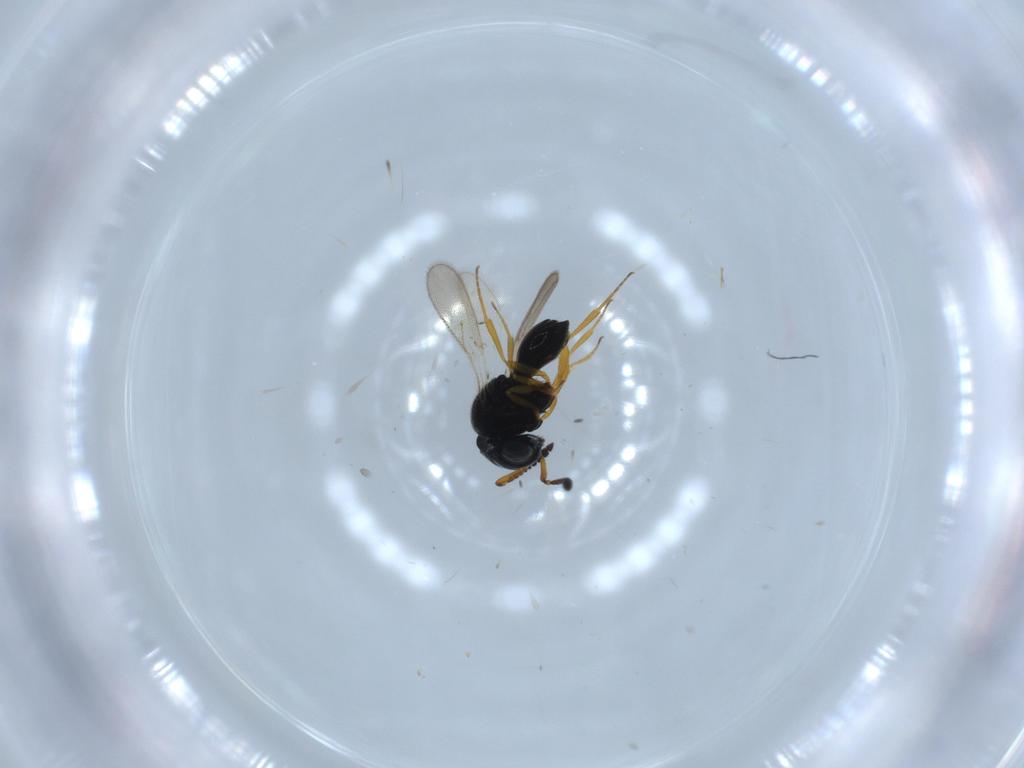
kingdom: Animalia
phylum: Arthropoda
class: Insecta
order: Hymenoptera
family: Scelionidae
